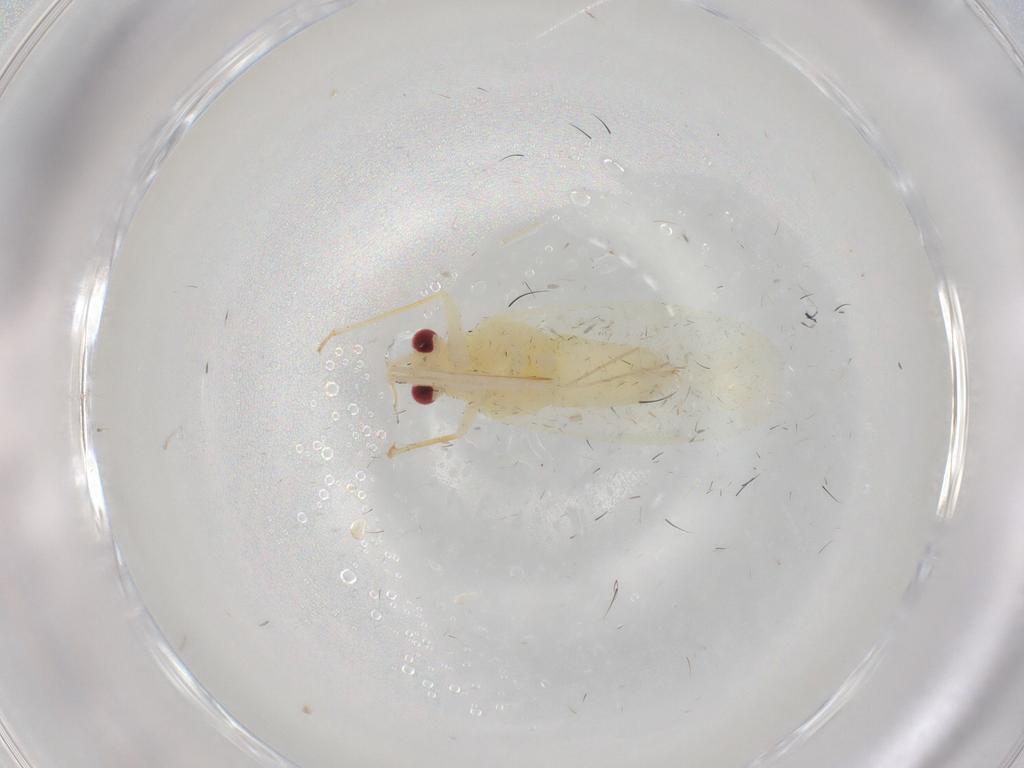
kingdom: Animalia
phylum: Arthropoda
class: Insecta
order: Hemiptera
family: Miridae
